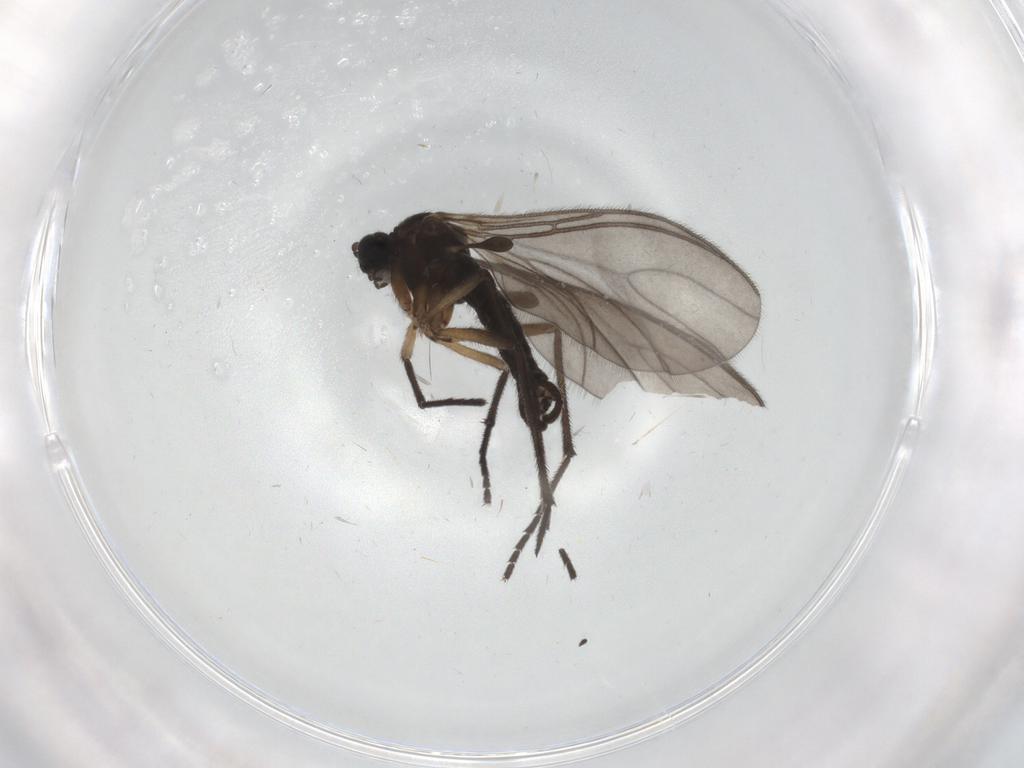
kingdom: Animalia
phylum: Arthropoda
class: Insecta
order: Diptera
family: Sciaridae
